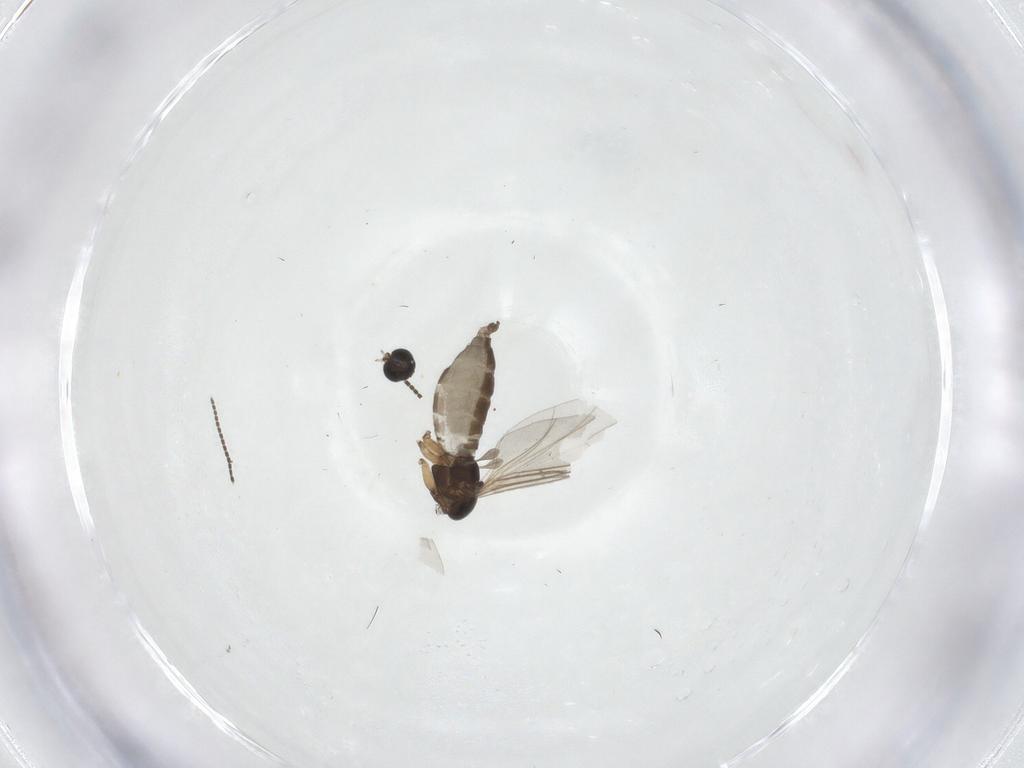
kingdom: Animalia
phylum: Arthropoda
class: Insecta
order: Diptera
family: Sciaridae
